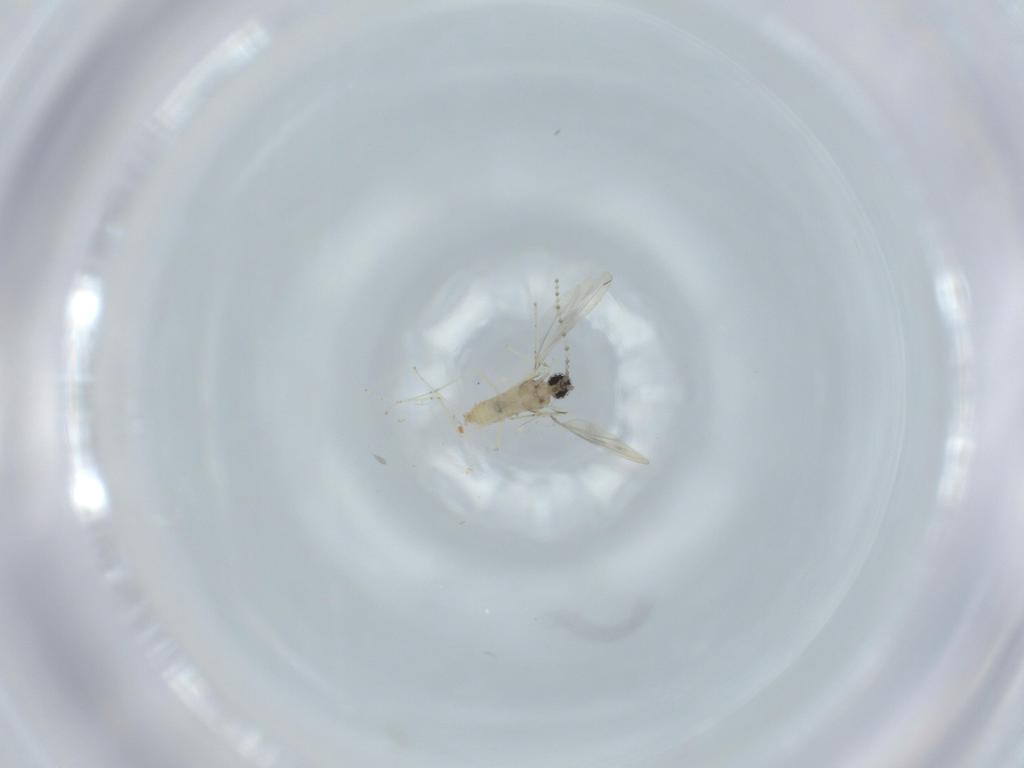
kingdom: Animalia
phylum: Arthropoda
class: Insecta
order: Diptera
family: Cecidomyiidae
